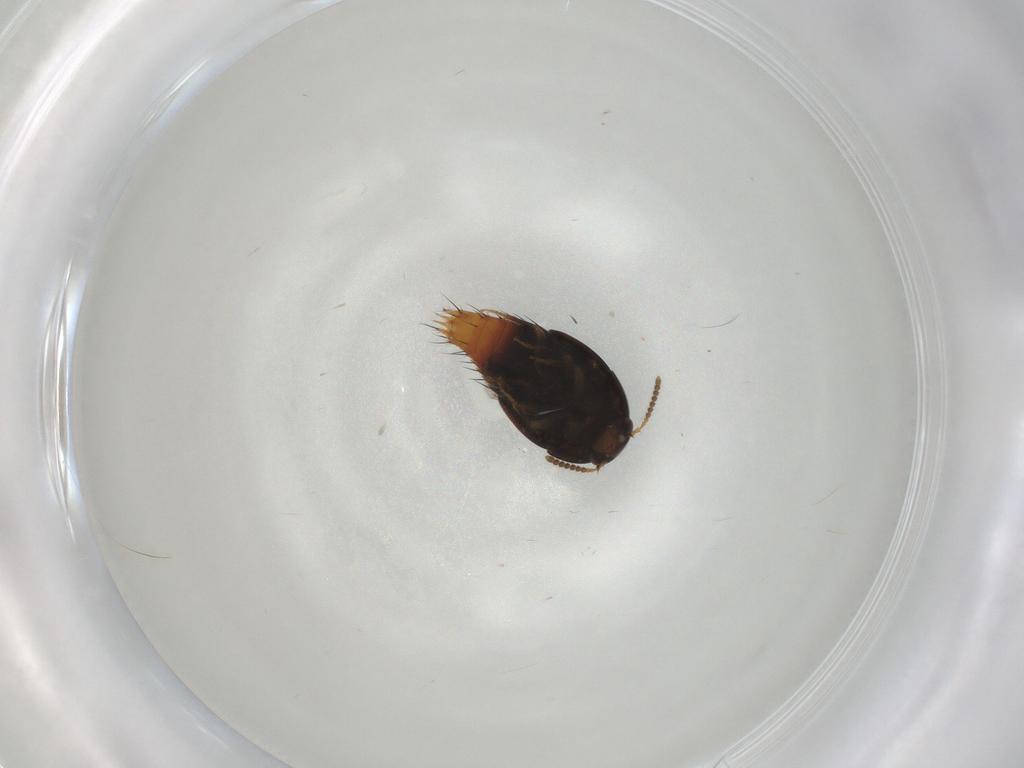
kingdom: Animalia
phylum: Arthropoda
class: Insecta
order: Coleoptera
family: Staphylinidae
